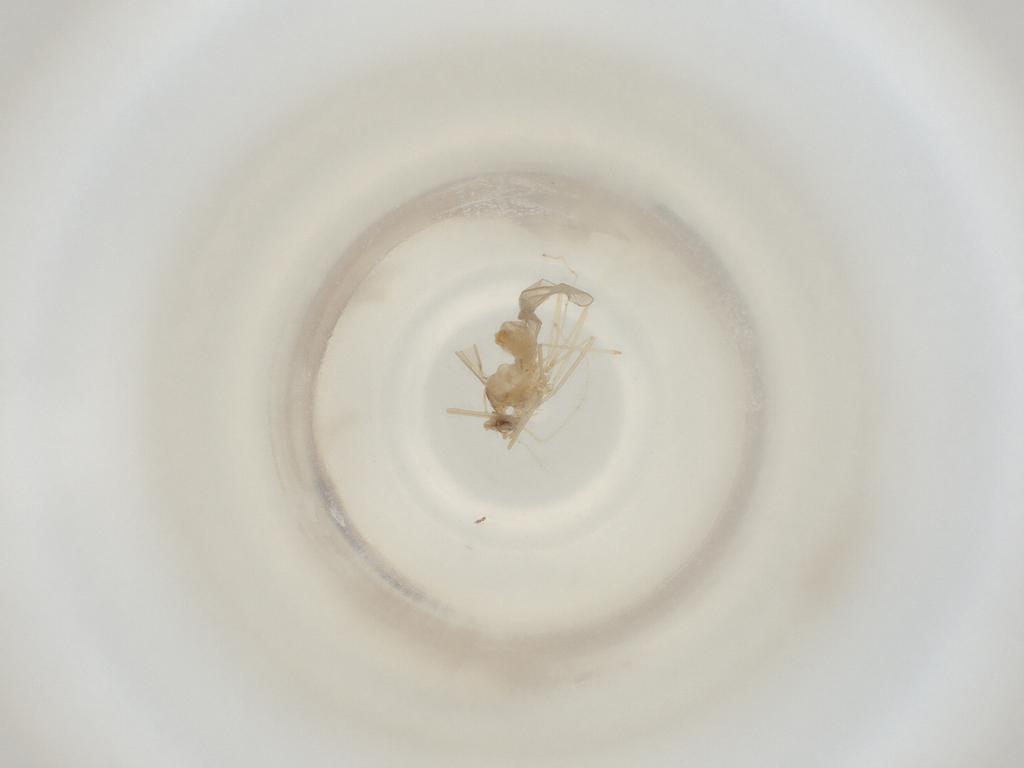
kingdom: Animalia
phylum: Arthropoda
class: Insecta
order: Diptera
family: Cecidomyiidae
